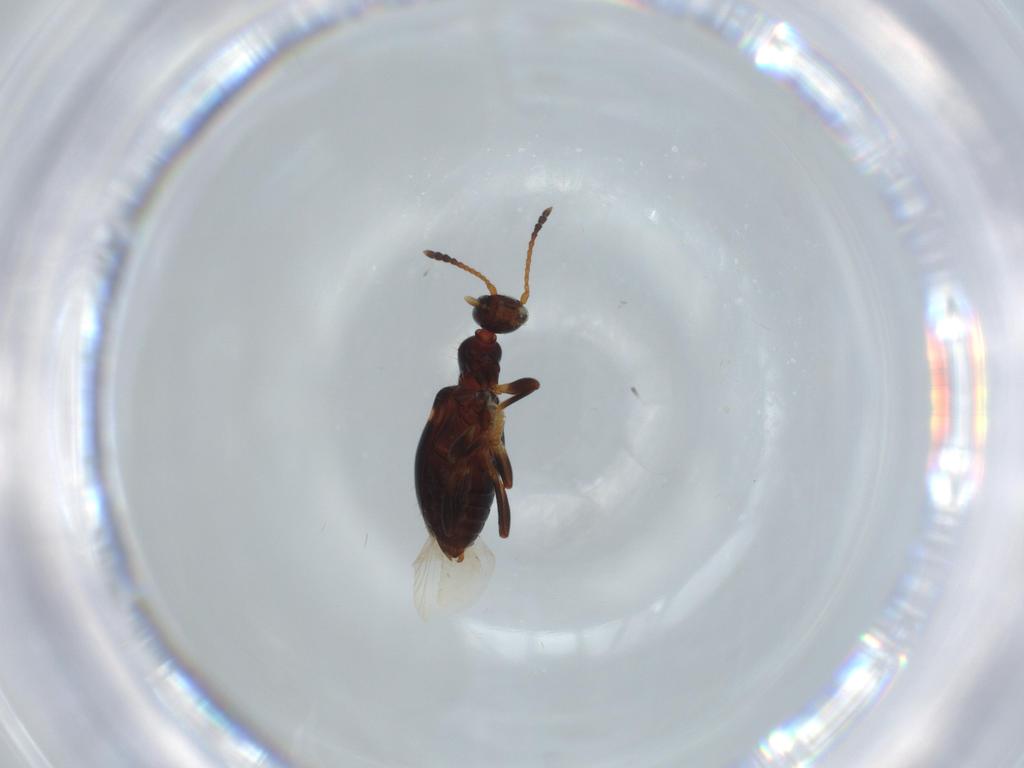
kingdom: Animalia
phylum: Arthropoda
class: Insecta
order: Coleoptera
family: Anthicidae
